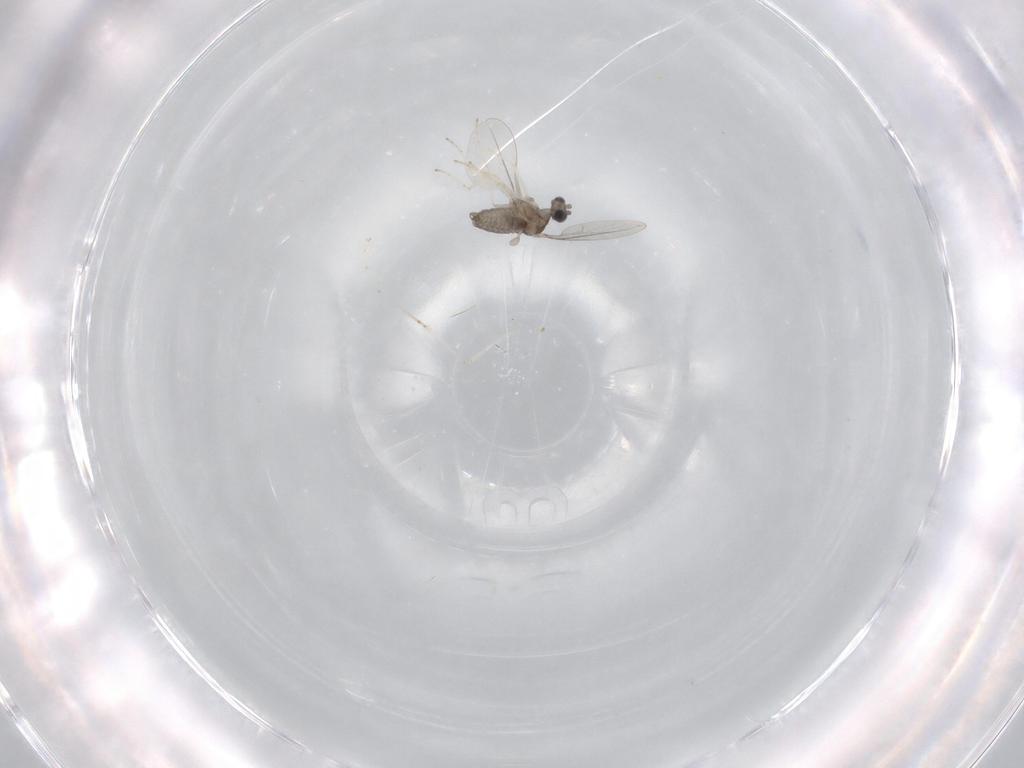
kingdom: Animalia
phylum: Arthropoda
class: Insecta
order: Diptera
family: Cecidomyiidae
